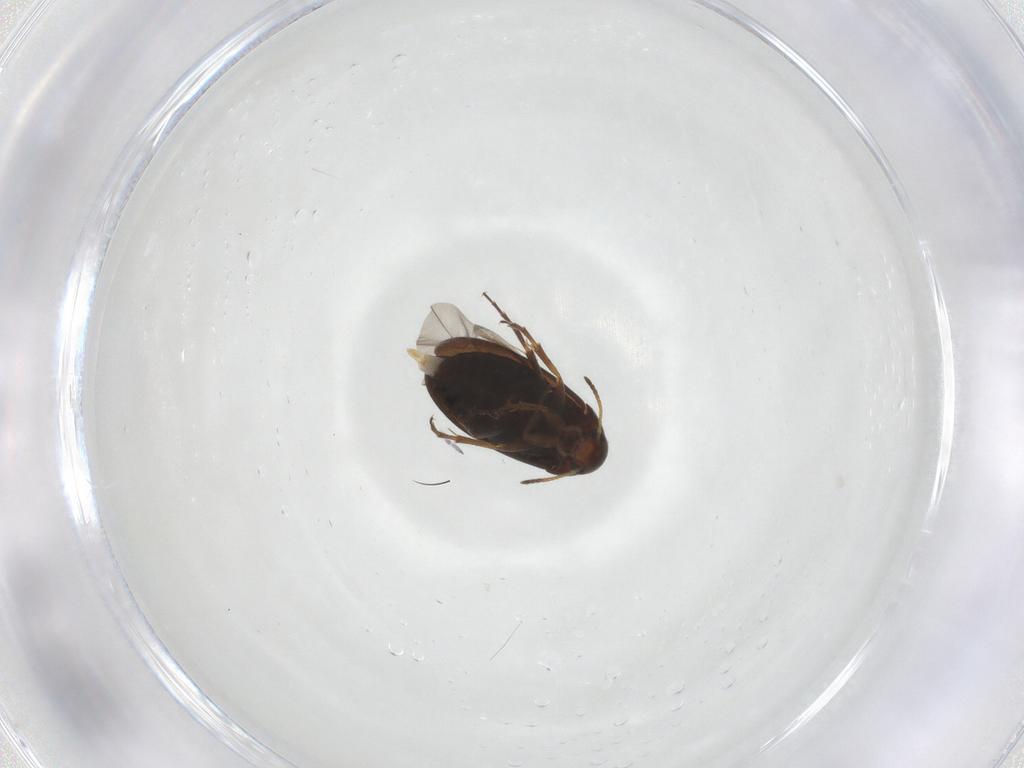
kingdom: Animalia
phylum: Arthropoda
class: Insecta
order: Coleoptera
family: Scraptiidae
